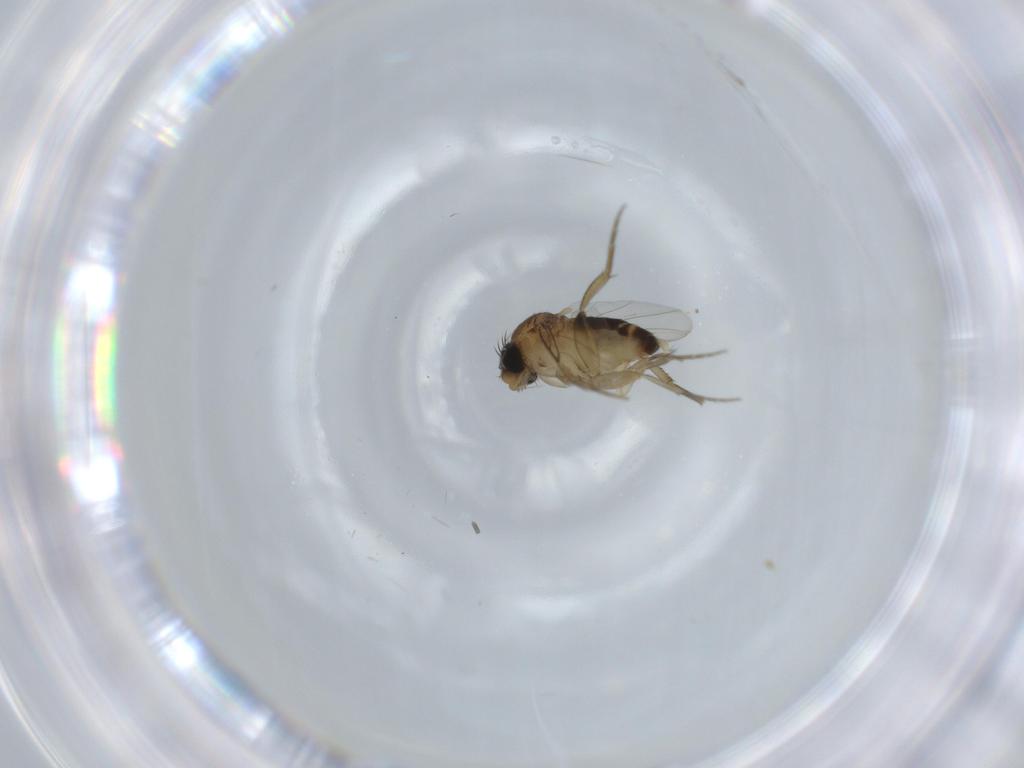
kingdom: Animalia
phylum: Arthropoda
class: Insecta
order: Diptera
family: Phoridae
